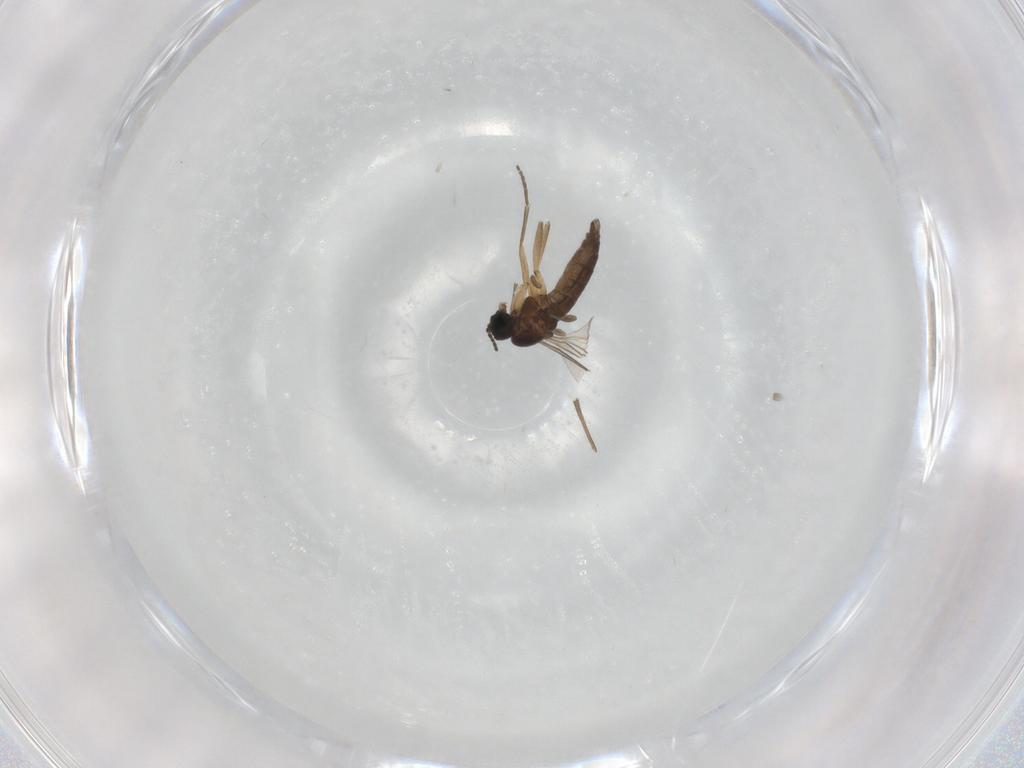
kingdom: Animalia
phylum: Arthropoda
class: Insecta
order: Diptera
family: Sciaridae
